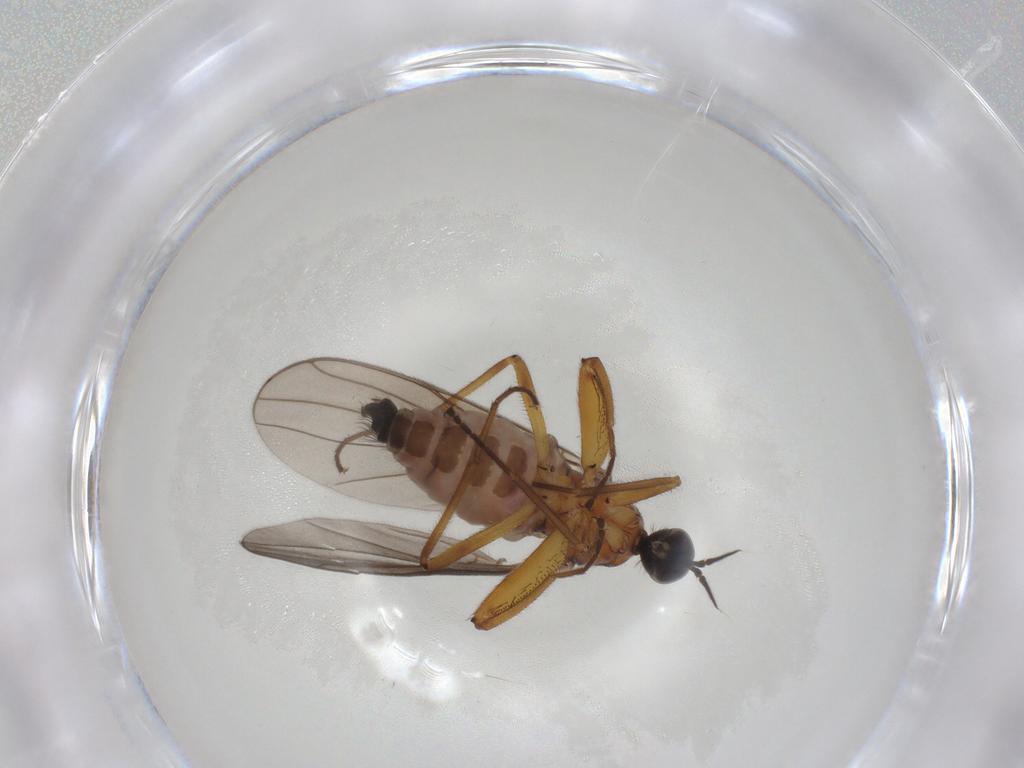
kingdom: Animalia
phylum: Arthropoda
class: Insecta
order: Diptera
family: Hybotidae
